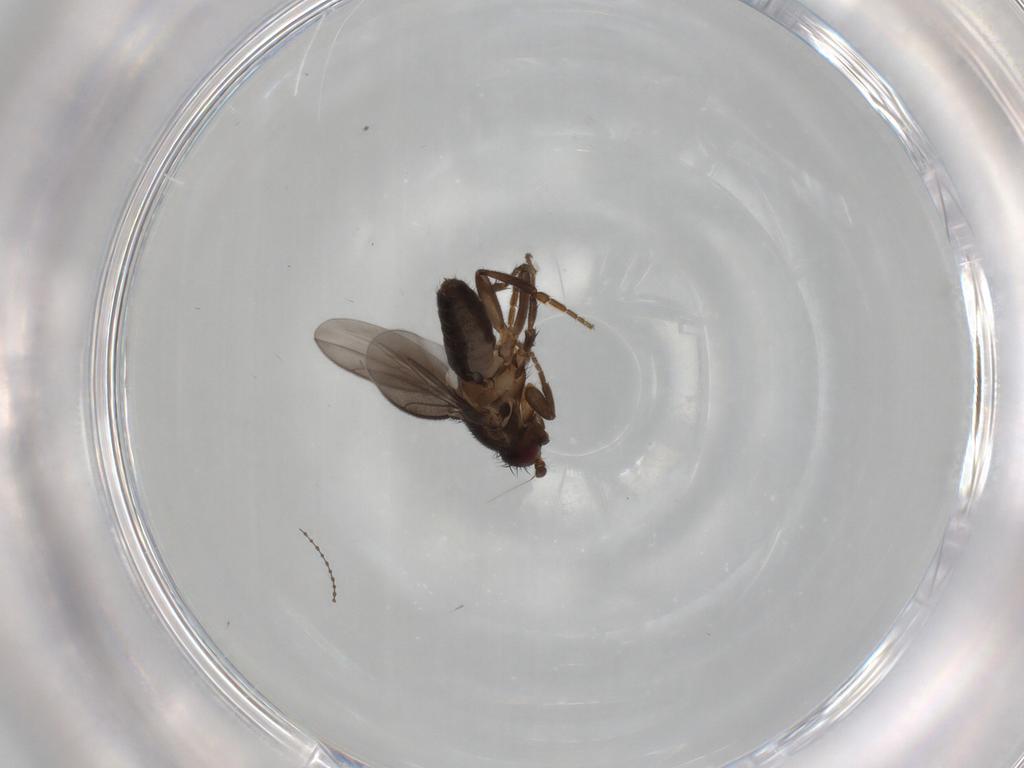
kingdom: Animalia
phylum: Arthropoda
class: Insecta
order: Diptera
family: Cecidomyiidae
